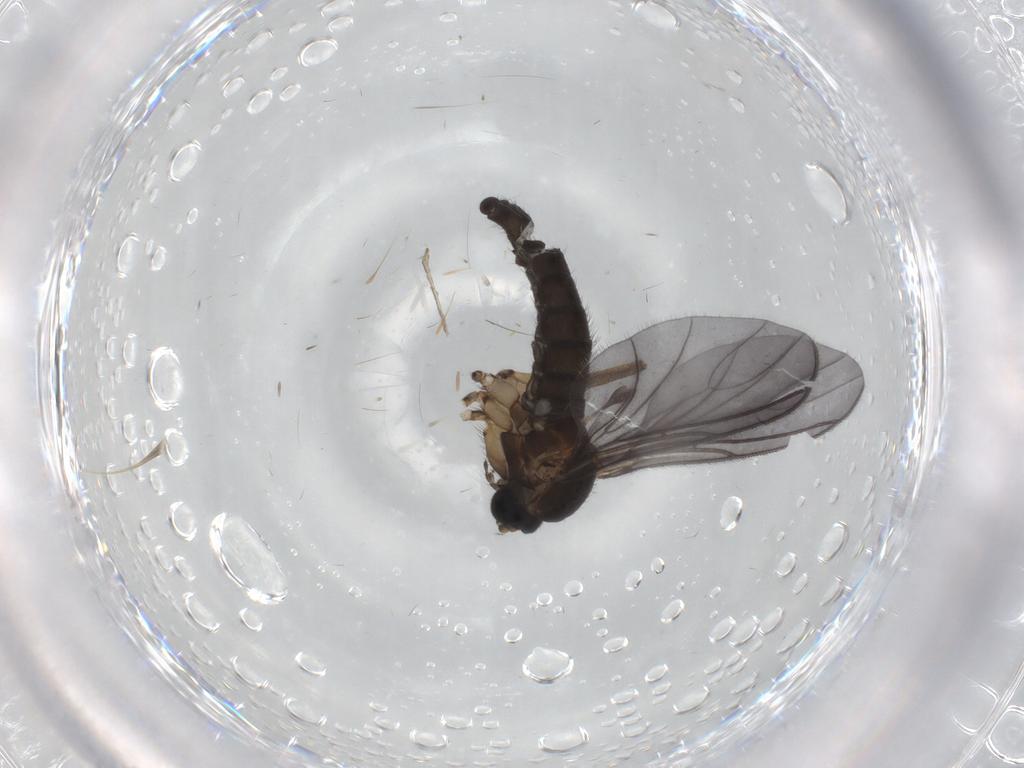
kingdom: Animalia
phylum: Arthropoda
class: Insecta
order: Diptera
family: Sciaridae
